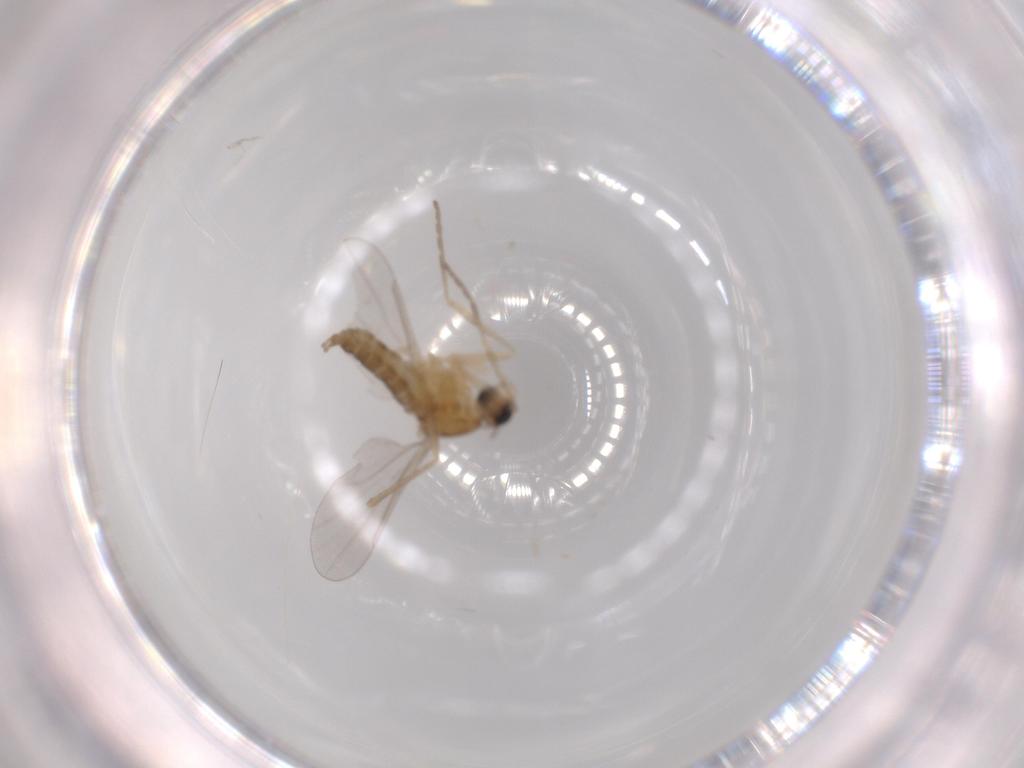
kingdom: Animalia
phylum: Arthropoda
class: Insecta
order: Diptera
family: Cecidomyiidae
